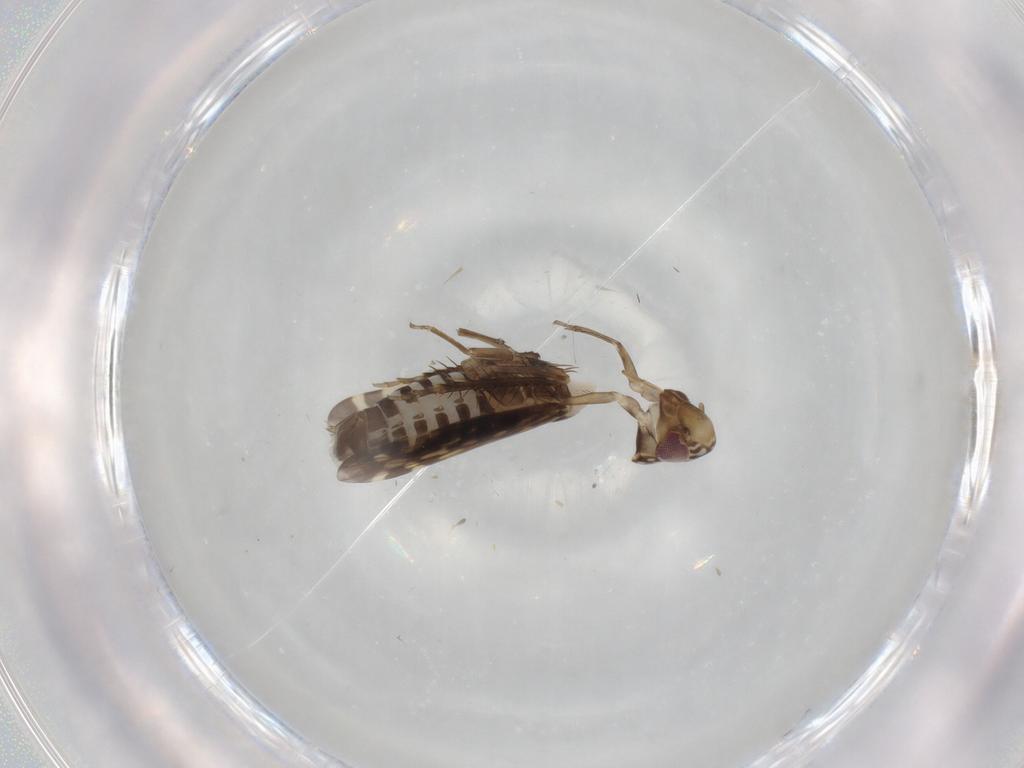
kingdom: Animalia
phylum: Arthropoda
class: Insecta
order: Hemiptera
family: Cicadellidae
